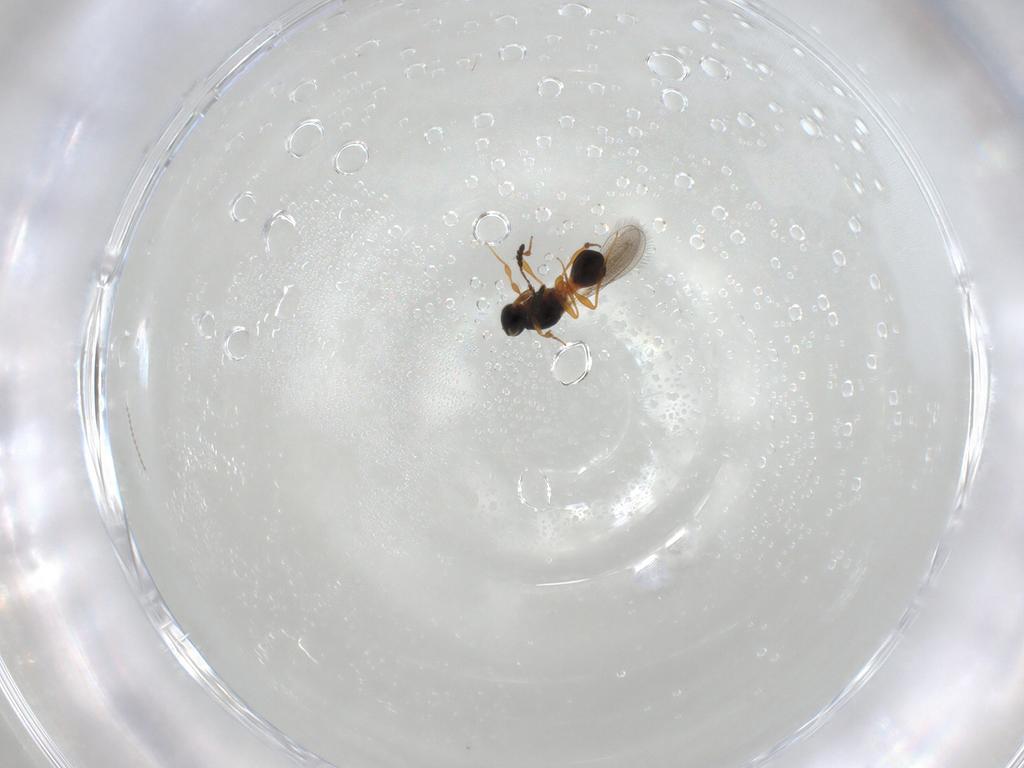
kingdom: Animalia
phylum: Arthropoda
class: Insecta
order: Hymenoptera
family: Platygastridae
